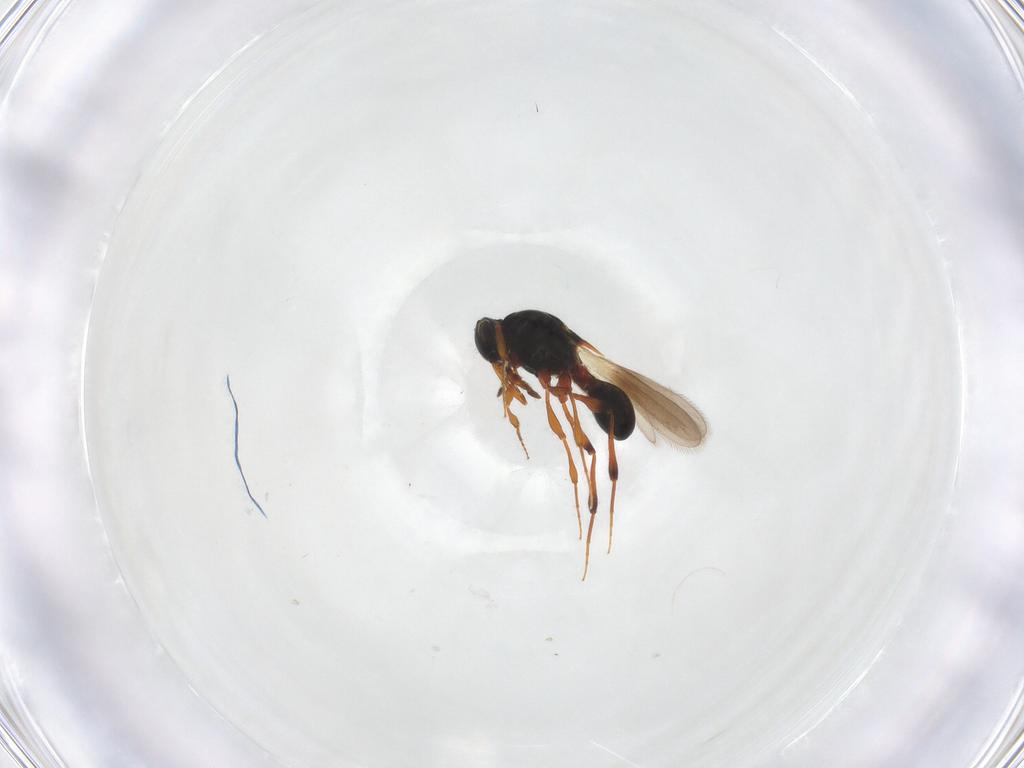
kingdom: Animalia
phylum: Arthropoda
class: Insecta
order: Hymenoptera
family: Platygastridae
